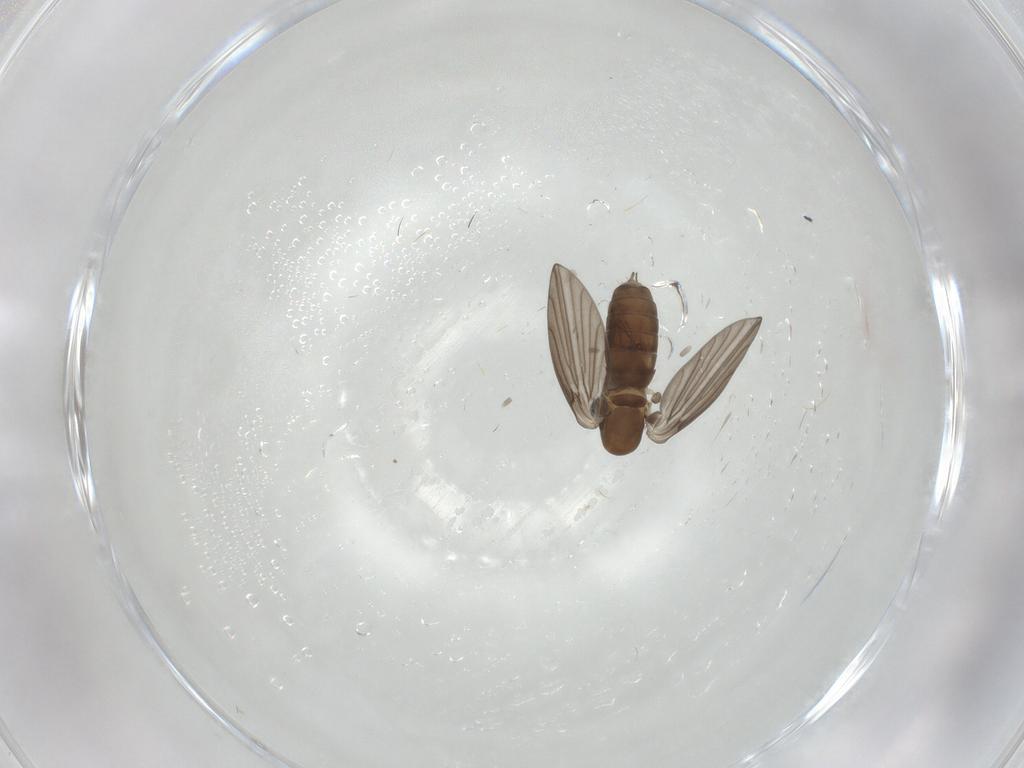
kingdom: Animalia
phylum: Arthropoda
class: Insecta
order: Diptera
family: Psychodidae
